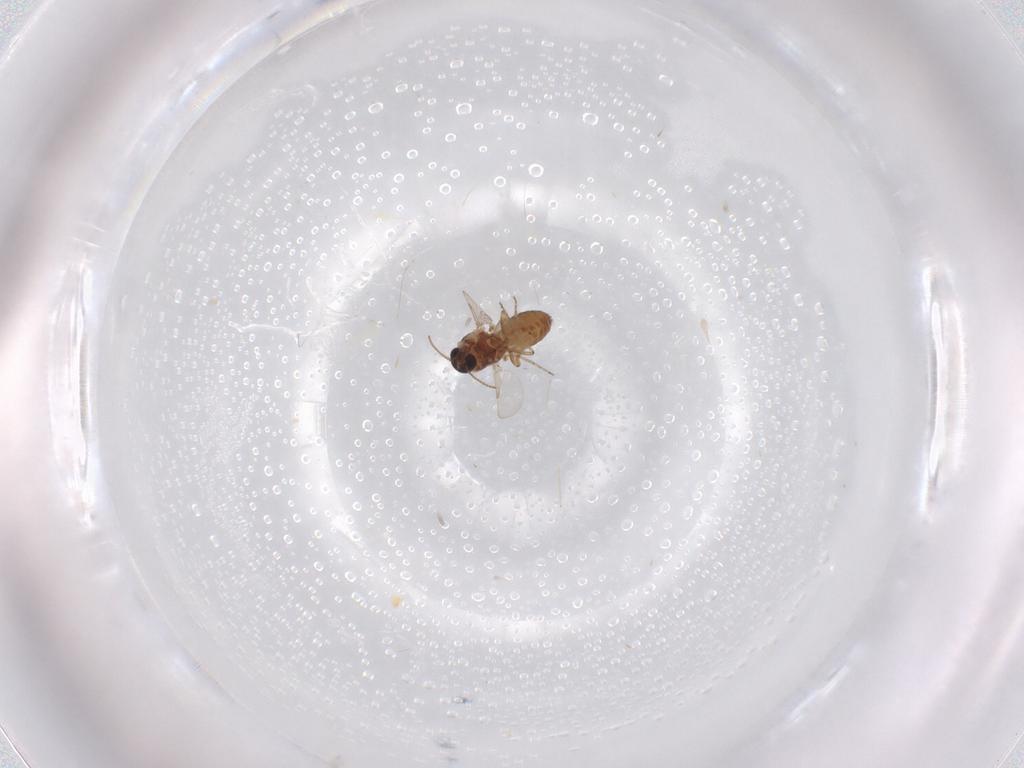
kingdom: Animalia
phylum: Arthropoda
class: Insecta
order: Diptera
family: Ceratopogonidae
